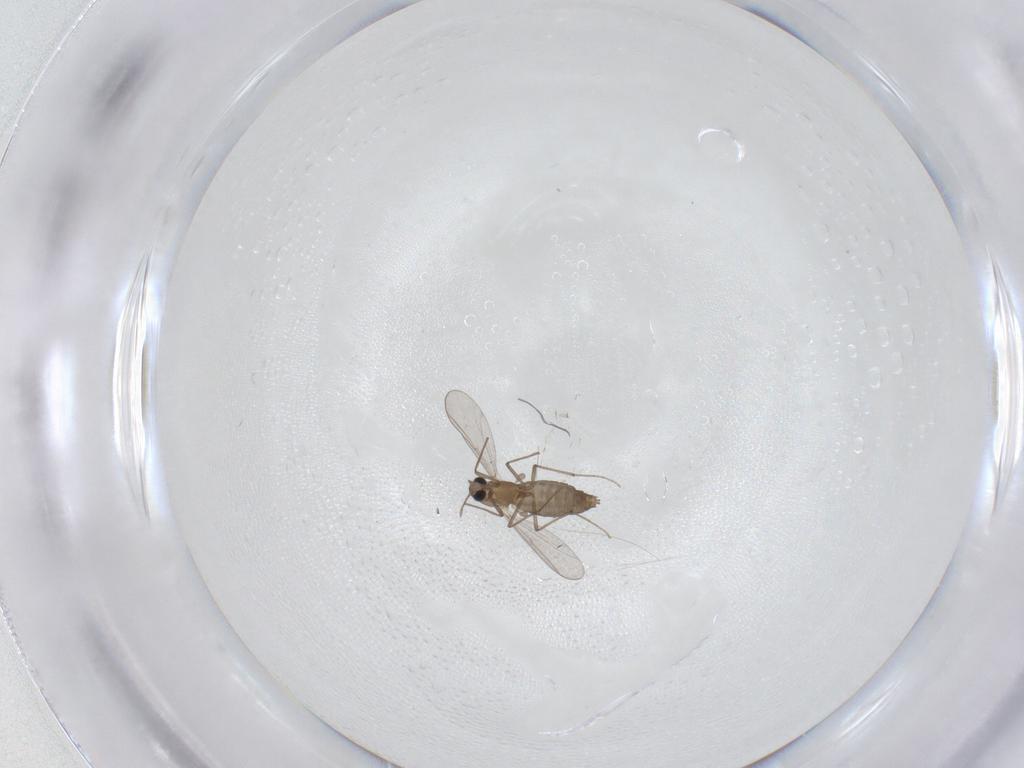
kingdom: Animalia
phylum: Arthropoda
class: Insecta
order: Diptera
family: Chironomidae
